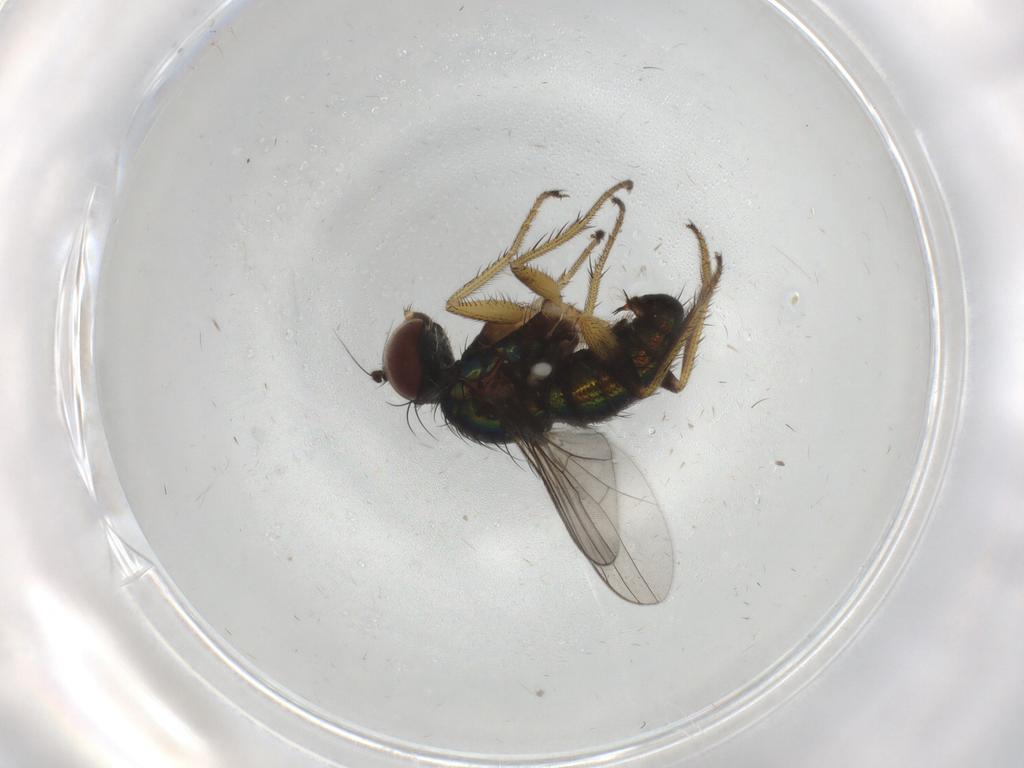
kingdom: Animalia
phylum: Arthropoda
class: Insecta
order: Diptera
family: Dolichopodidae
